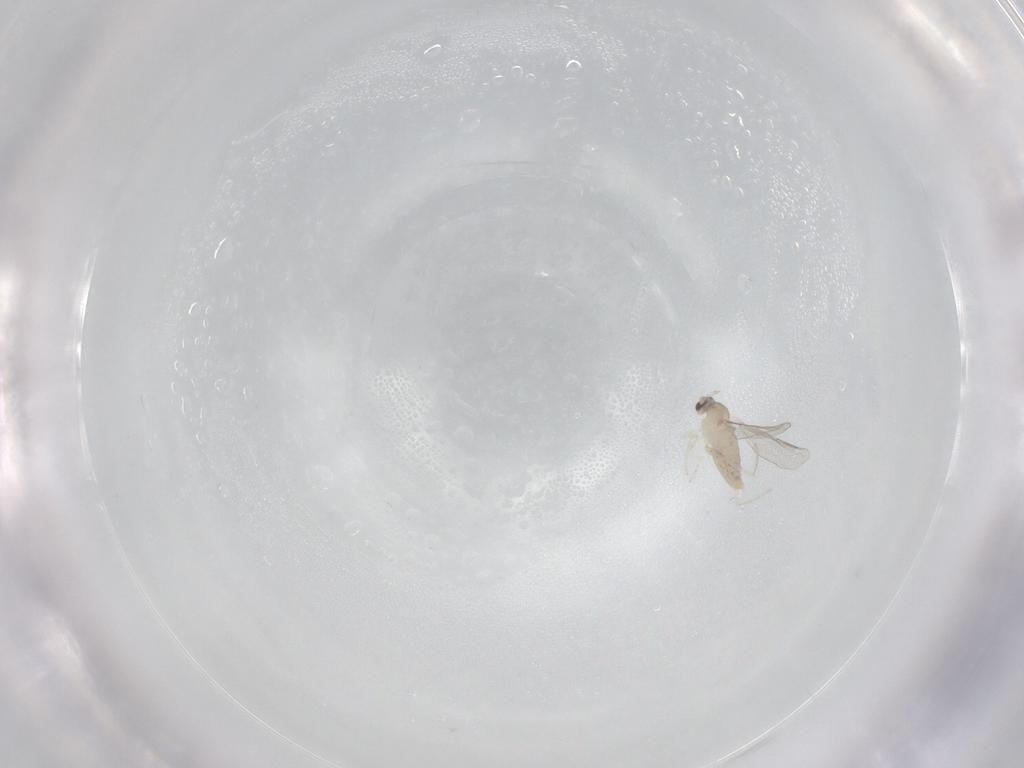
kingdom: Animalia
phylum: Arthropoda
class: Insecta
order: Diptera
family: Cecidomyiidae
